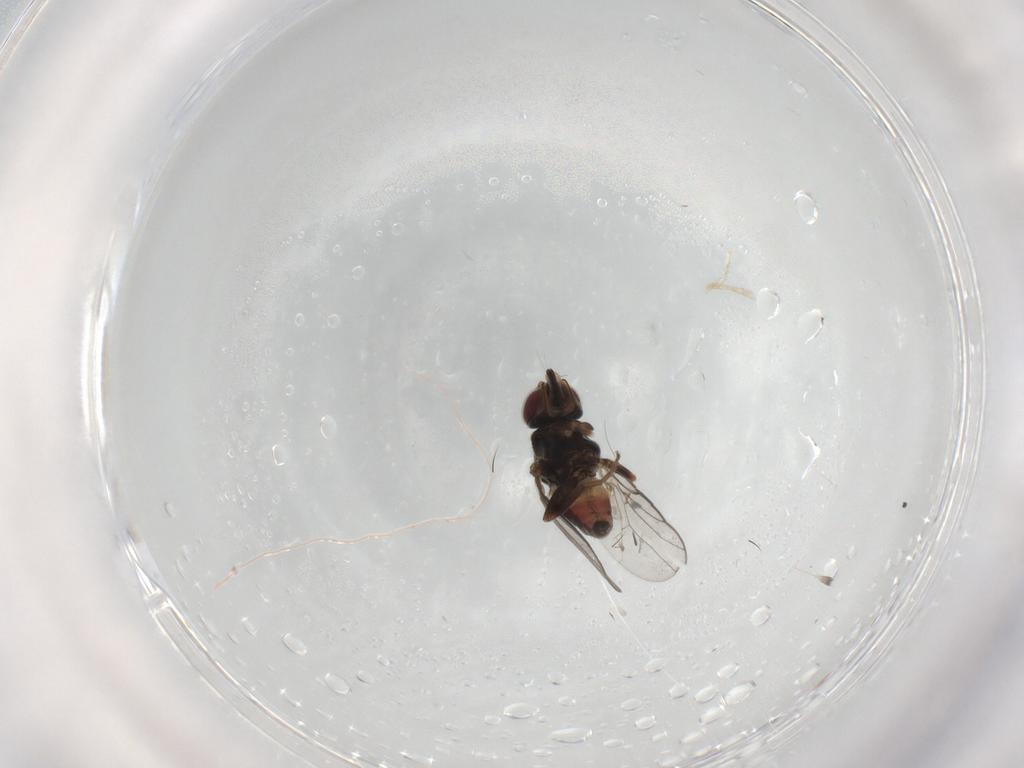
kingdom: Animalia
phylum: Arthropoda
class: Insecta
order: Diptera
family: Chloropidae
